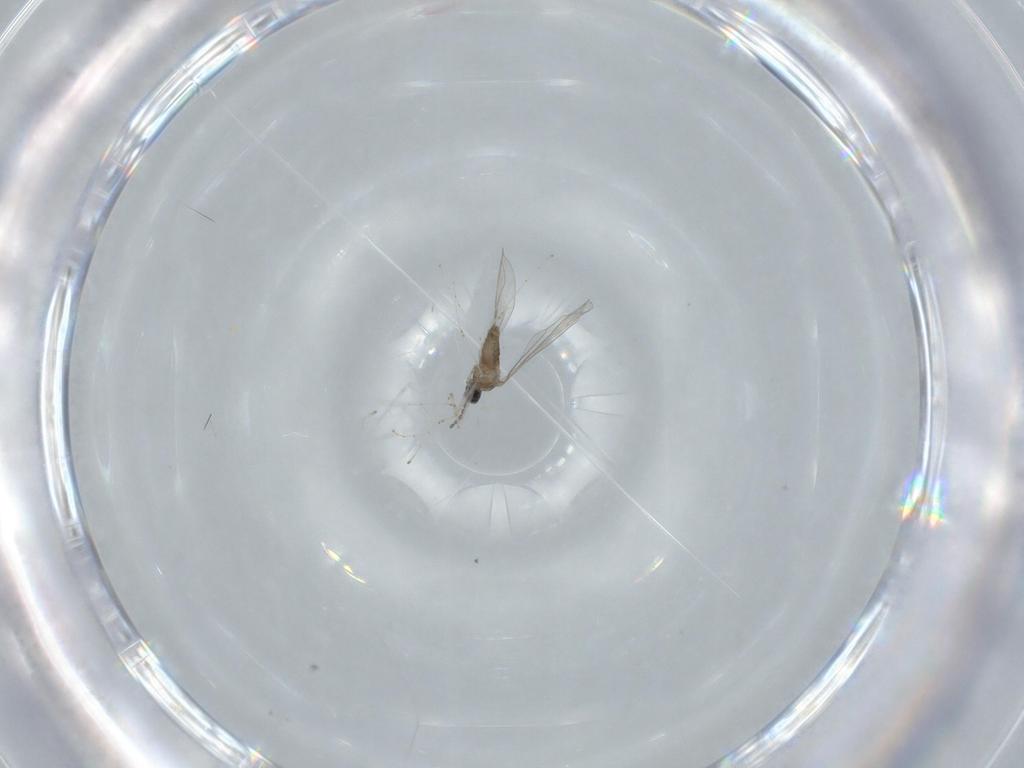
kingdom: Animalia
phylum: Arthropoda
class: Insecta
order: Diptera
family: Cecidomyiidae
